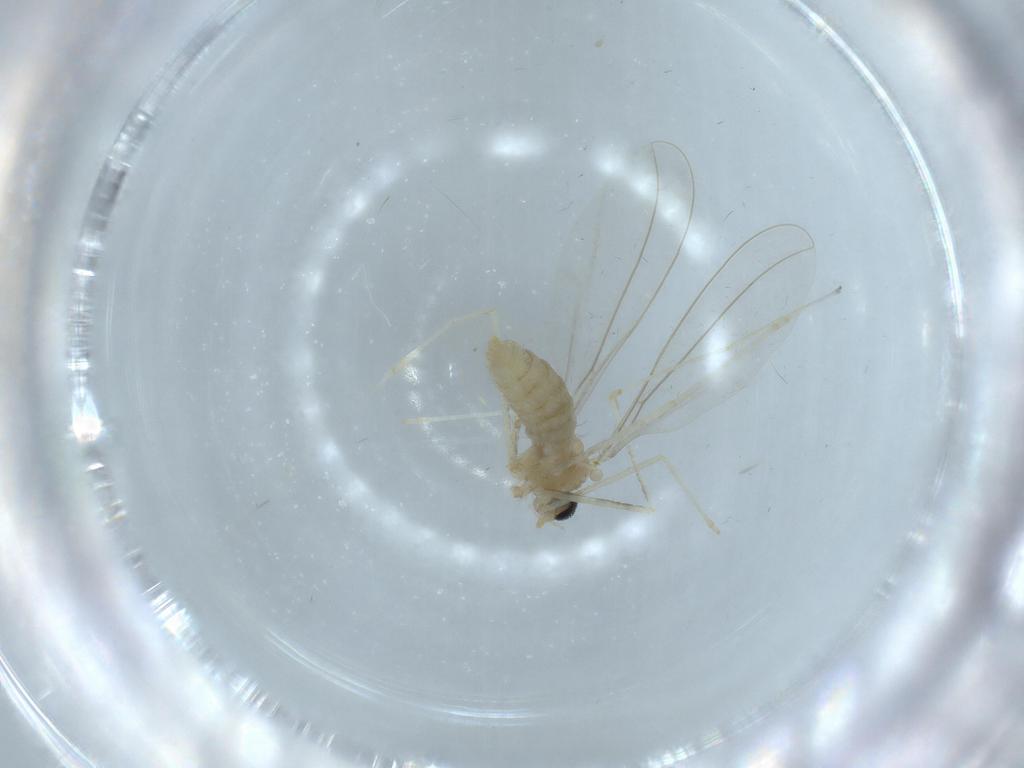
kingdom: Animalia
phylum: Arthropoda
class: Insecta
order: Diptera
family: Cecidomyiidae
